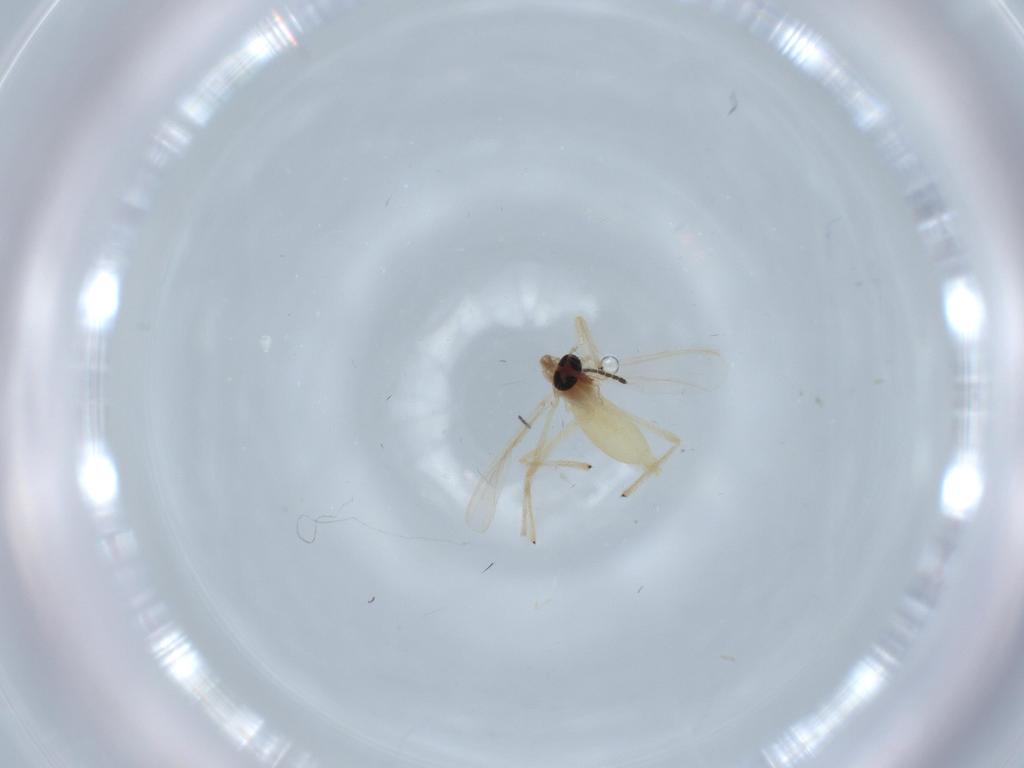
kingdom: Animalia
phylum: Arthropoda
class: Insecta
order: Diptera
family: Chironomidae
